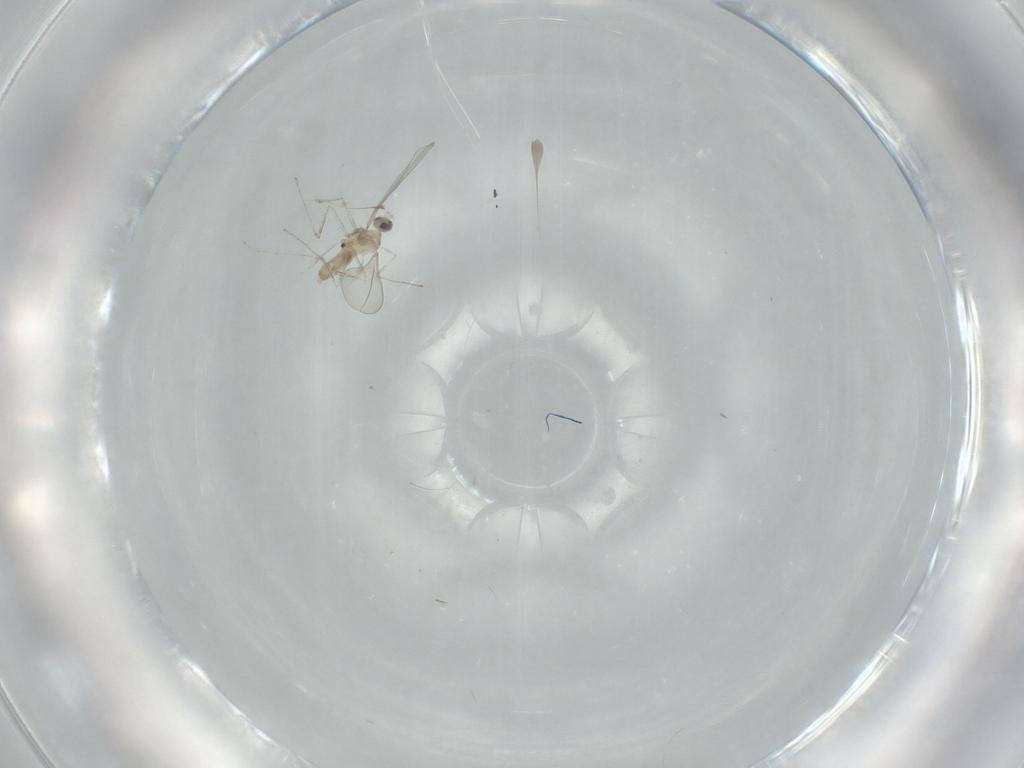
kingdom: Animalia
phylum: Arthropoda
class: Insecta
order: Diptera
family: Cecidomyiidae
